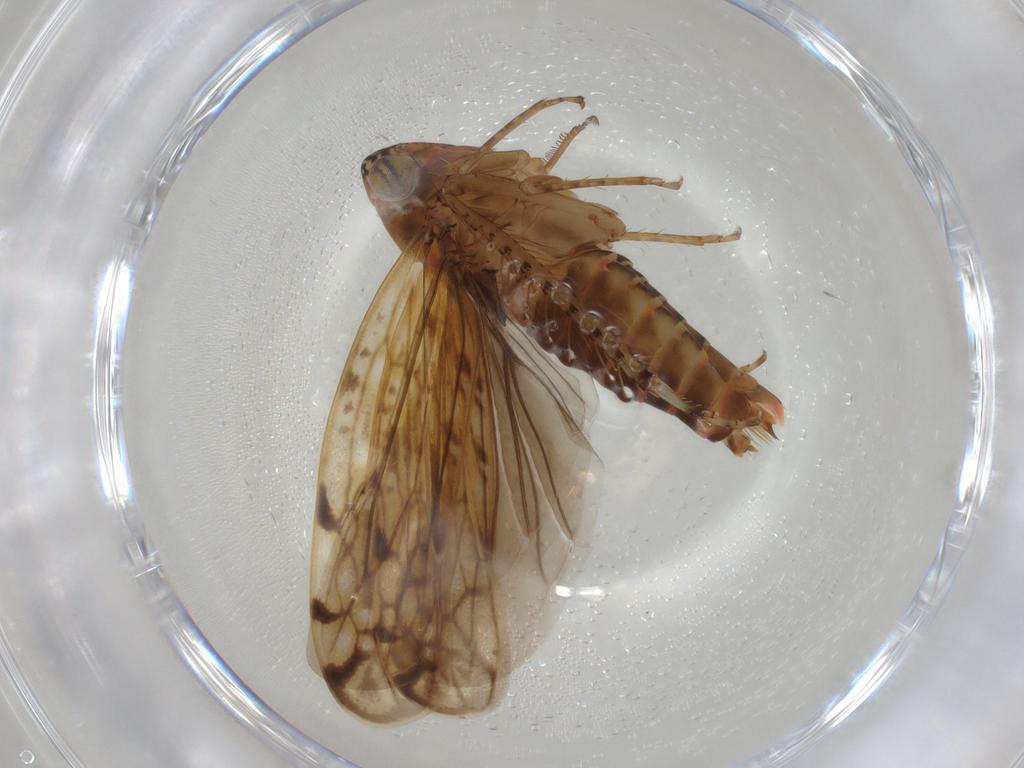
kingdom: Animalia
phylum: Arthropoda
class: Insecta
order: Hemiptera
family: Cicadellidae
